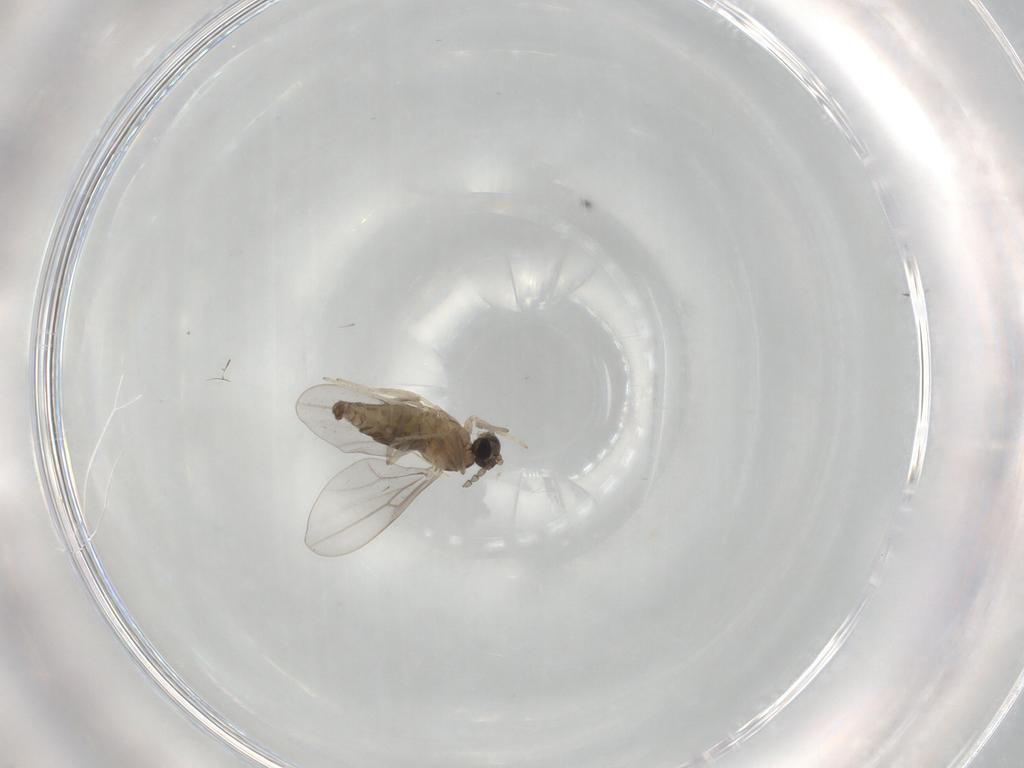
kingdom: Animalia
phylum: Arthropoda
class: Insecta
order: Diptera
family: Cecidomyiidae
